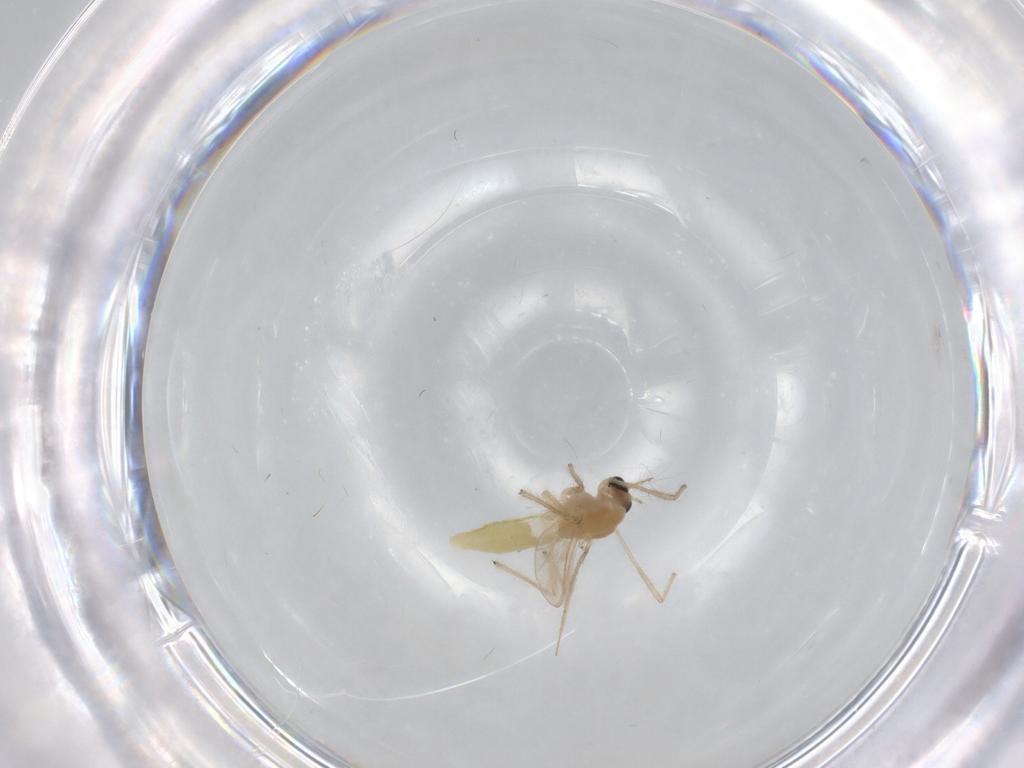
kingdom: Animalia
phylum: Arthropoda
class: Insecta
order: Diptera
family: Chironomidae
